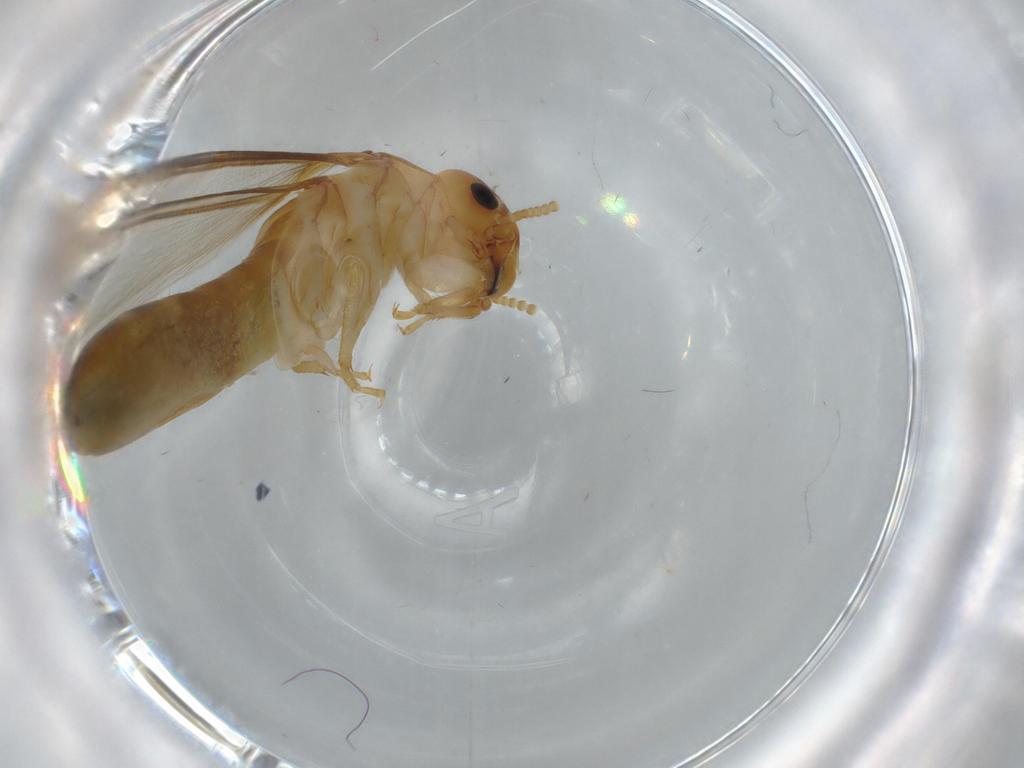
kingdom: Animalia
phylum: Arthropoda
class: Insecta
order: Blattodea
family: Kalotermitidae
